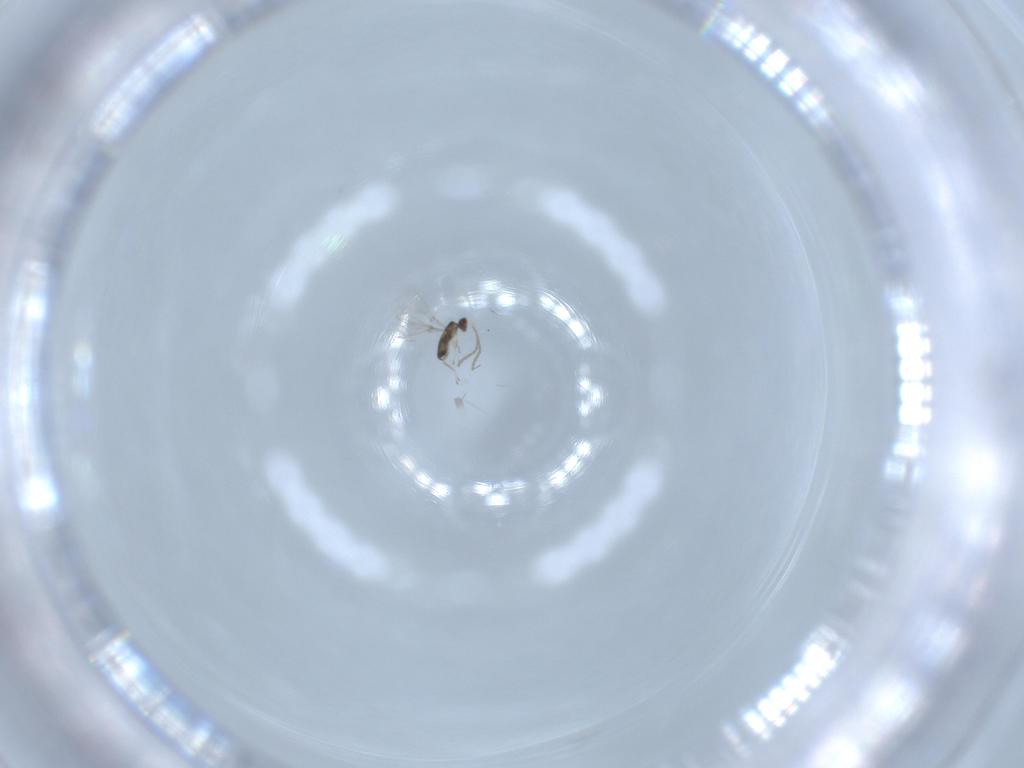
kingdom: Animalia
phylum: Arthropoda
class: Insecta
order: Hymenoptera
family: Mymaridae
